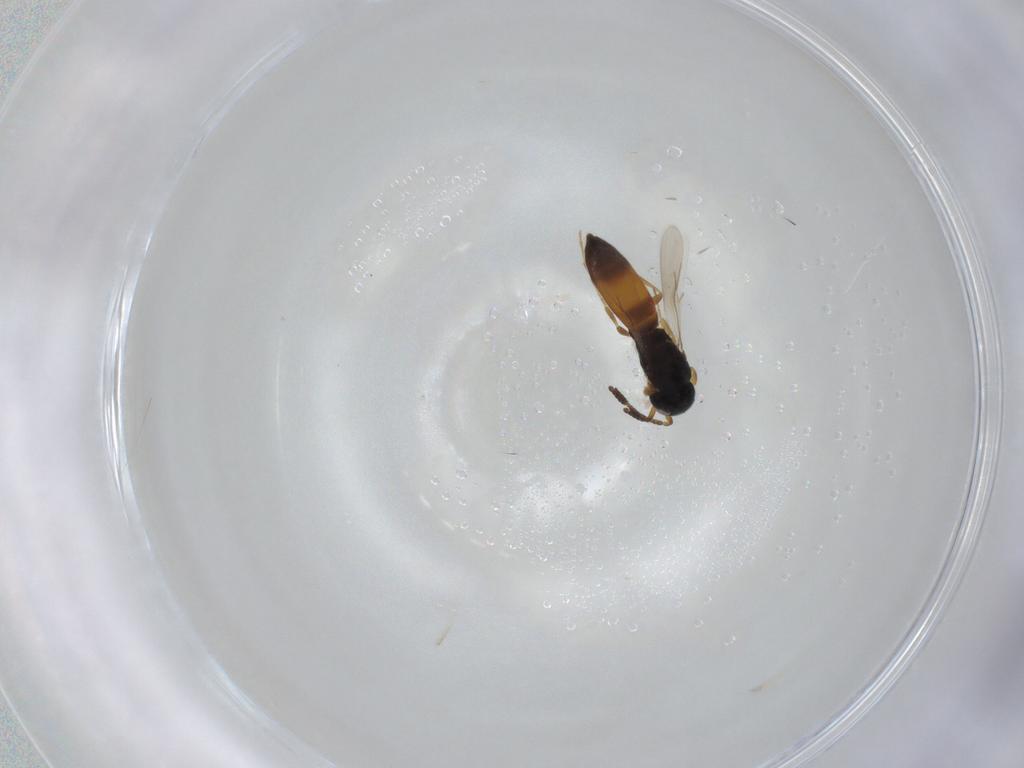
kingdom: Animalia
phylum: Arthropoda
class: Insecta
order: Hymenoptera
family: Scelionidae
